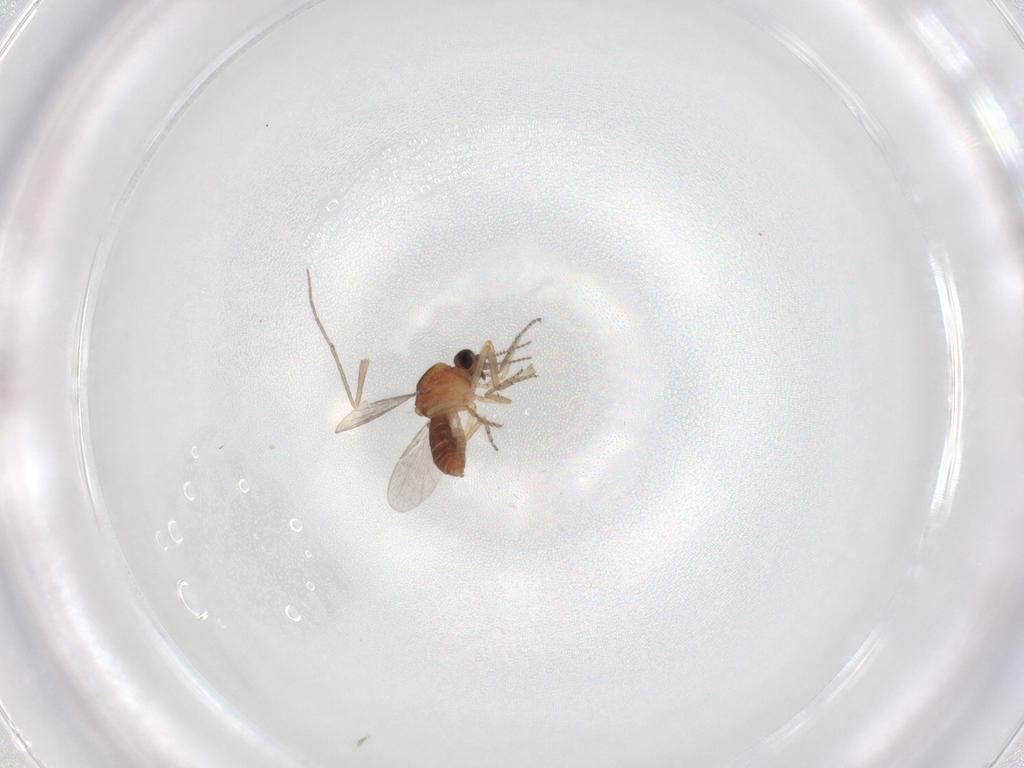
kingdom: Animalia
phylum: Arthropoda
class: Insecta
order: Diptera
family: Ceratopogonidae
